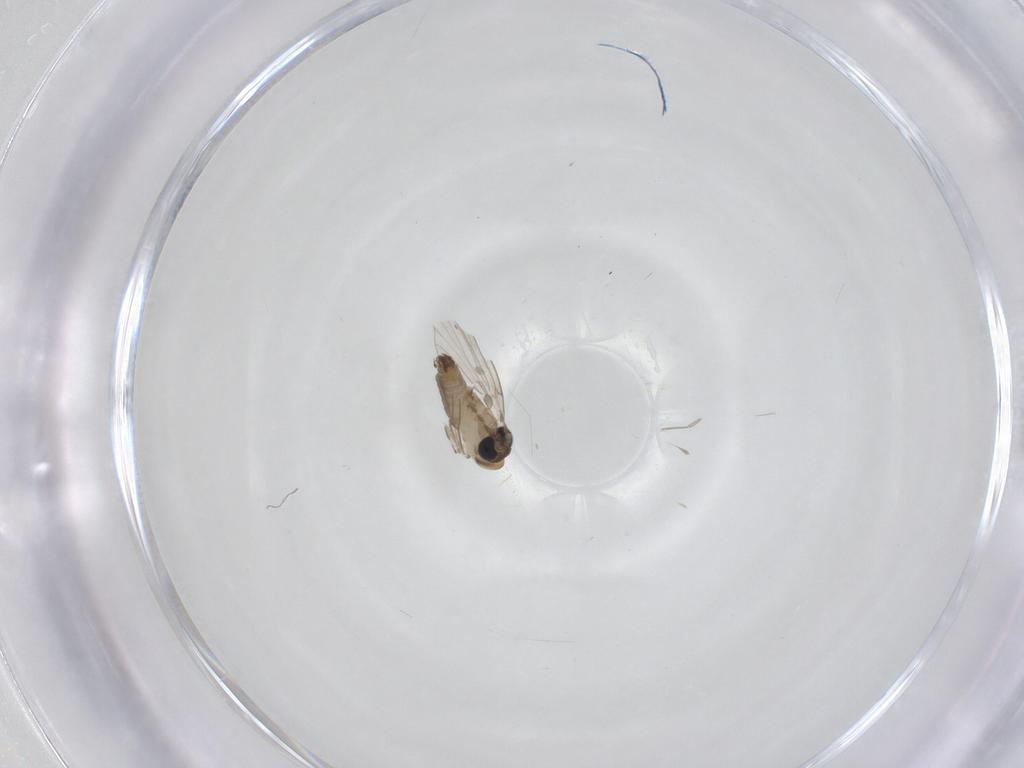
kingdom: Animalia
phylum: Arthropoda
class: Insecta
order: Diptera
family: Psychodidae
